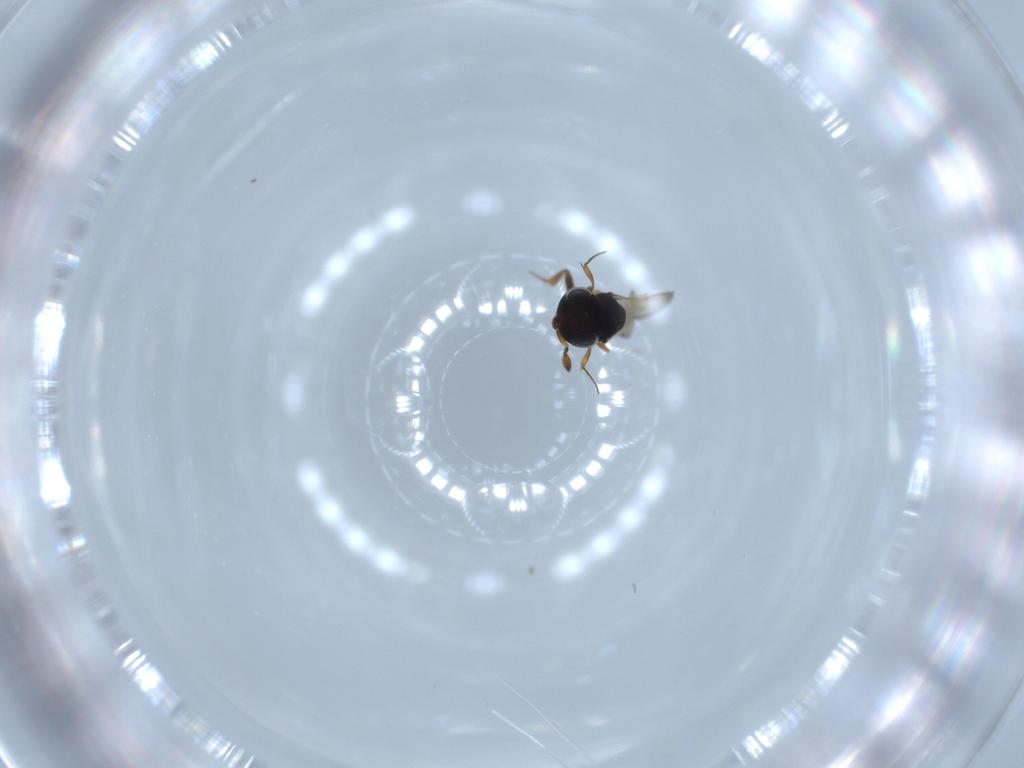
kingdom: Animalia
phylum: Arthropoda
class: Insecta
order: Hymenoptera
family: Scelionidae
